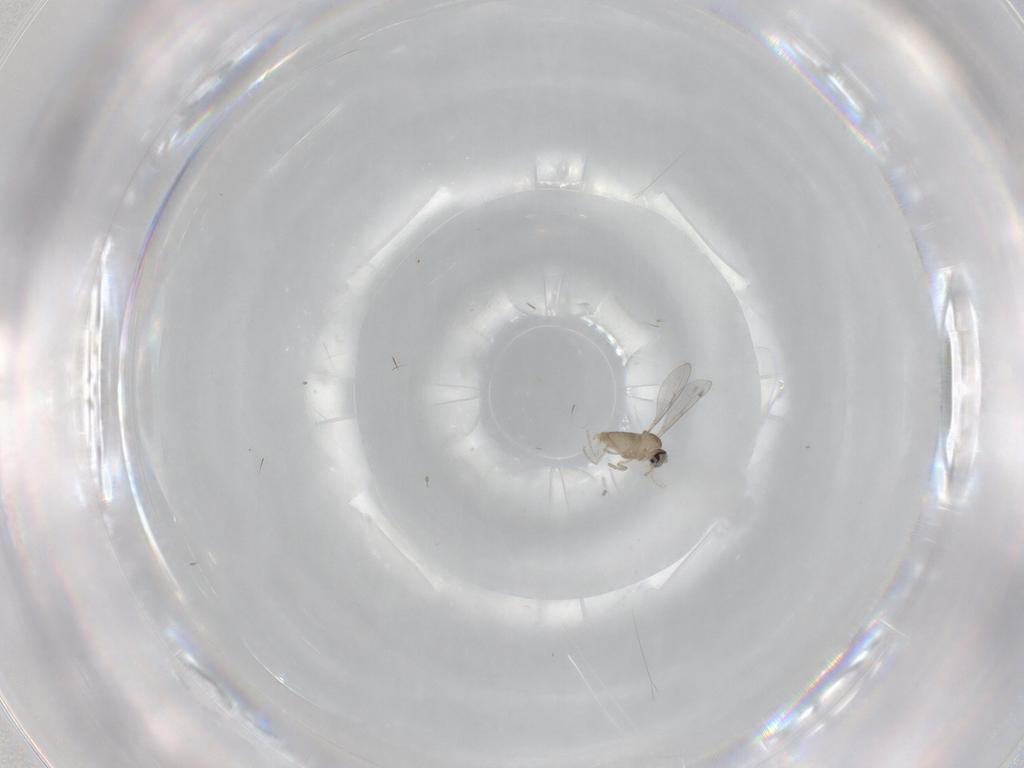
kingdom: Animalia
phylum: Arthropoda
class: Insecta
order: Diptera
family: Cecidomyiidae
